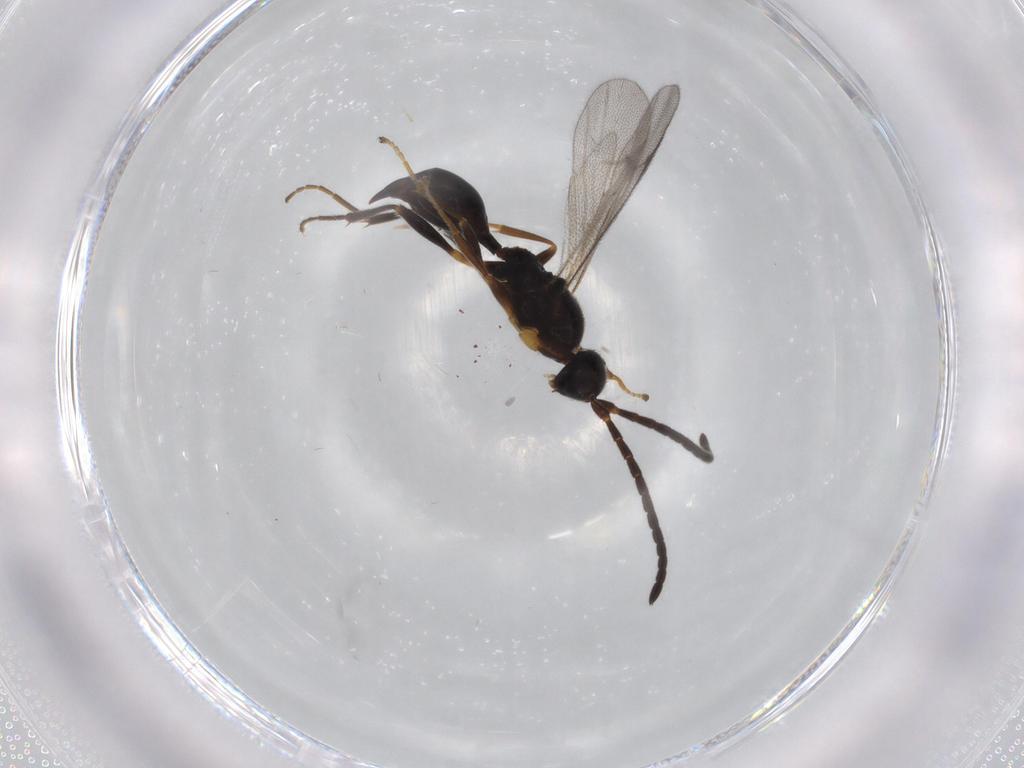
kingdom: Animalia
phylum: Arthropoda
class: Insecta
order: Hymenoptera
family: Proctotrupidae
